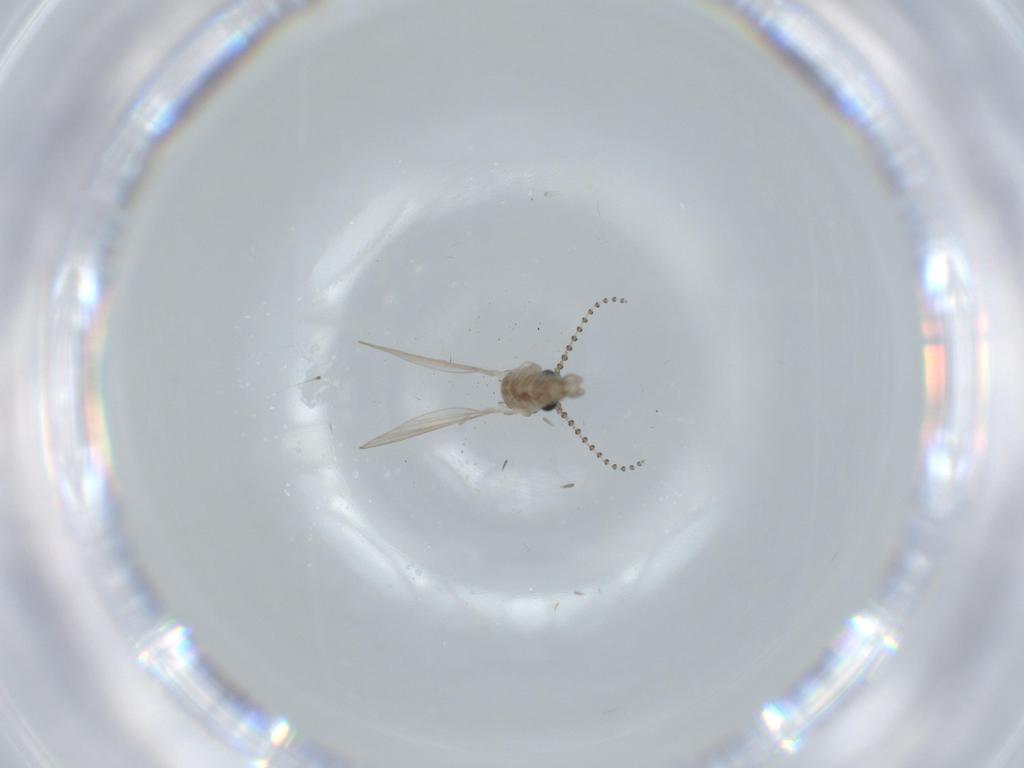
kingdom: Animalia
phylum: Arthropoda
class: Insecta
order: Diptera
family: Psychodidae
